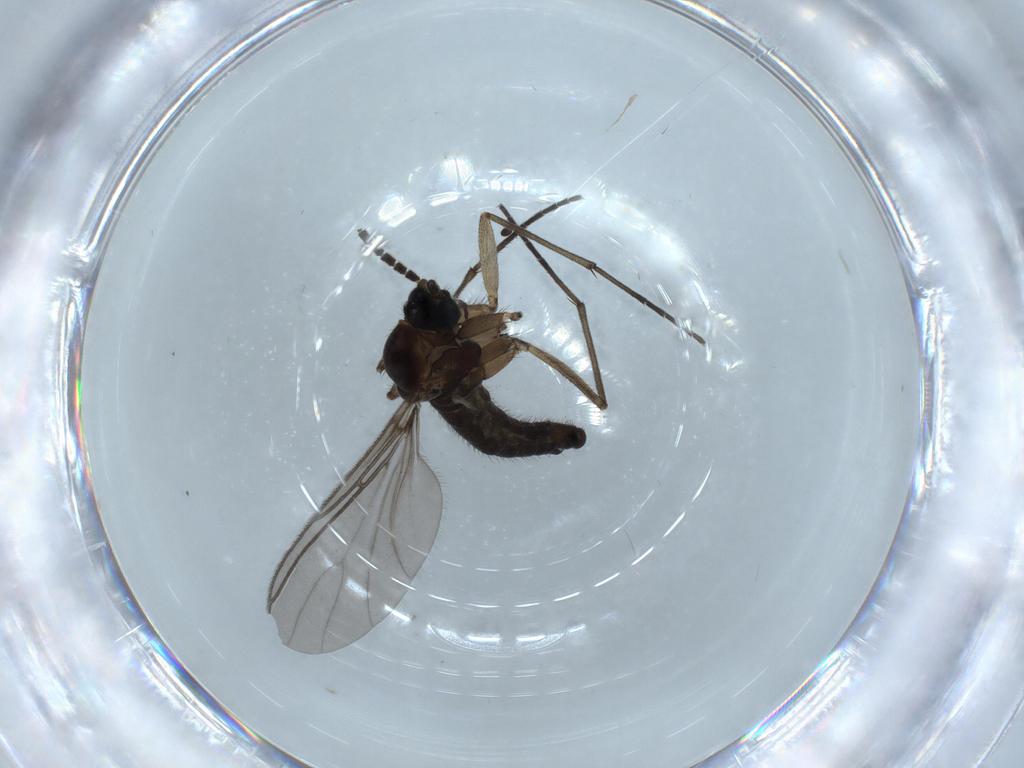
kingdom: Animalia
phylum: Arthropoda
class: Insecta
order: Diptera
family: Sciaridae
